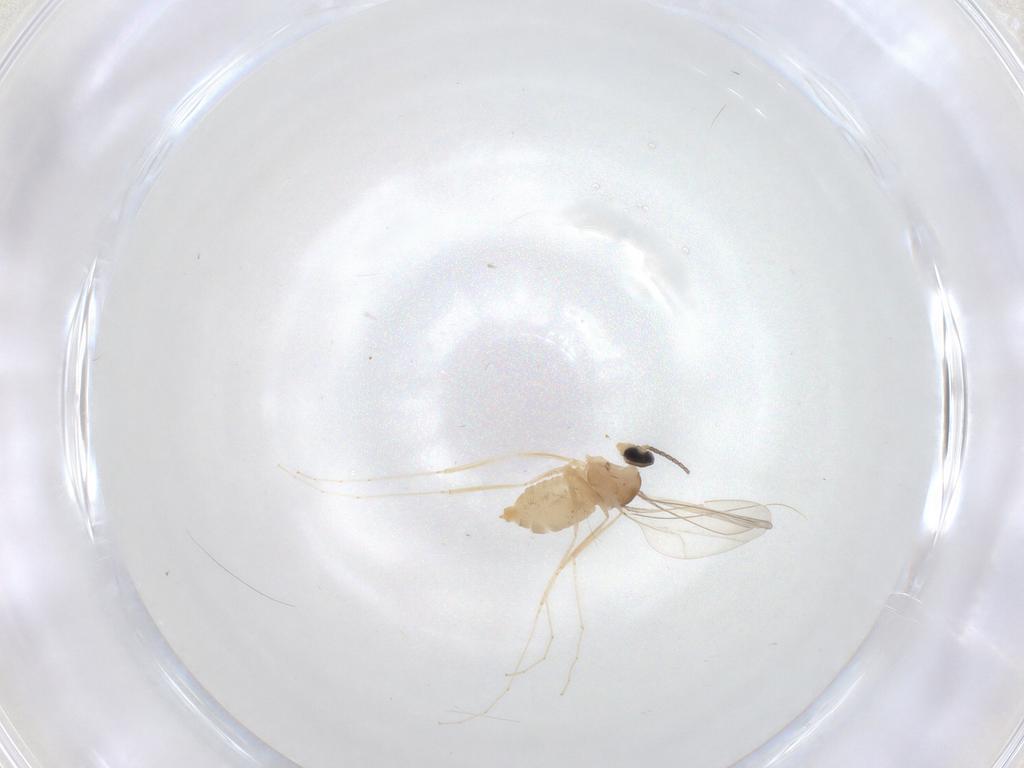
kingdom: Animalia
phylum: Arthropoda
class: Insecta
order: Diptera
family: Cecidomyiidae
